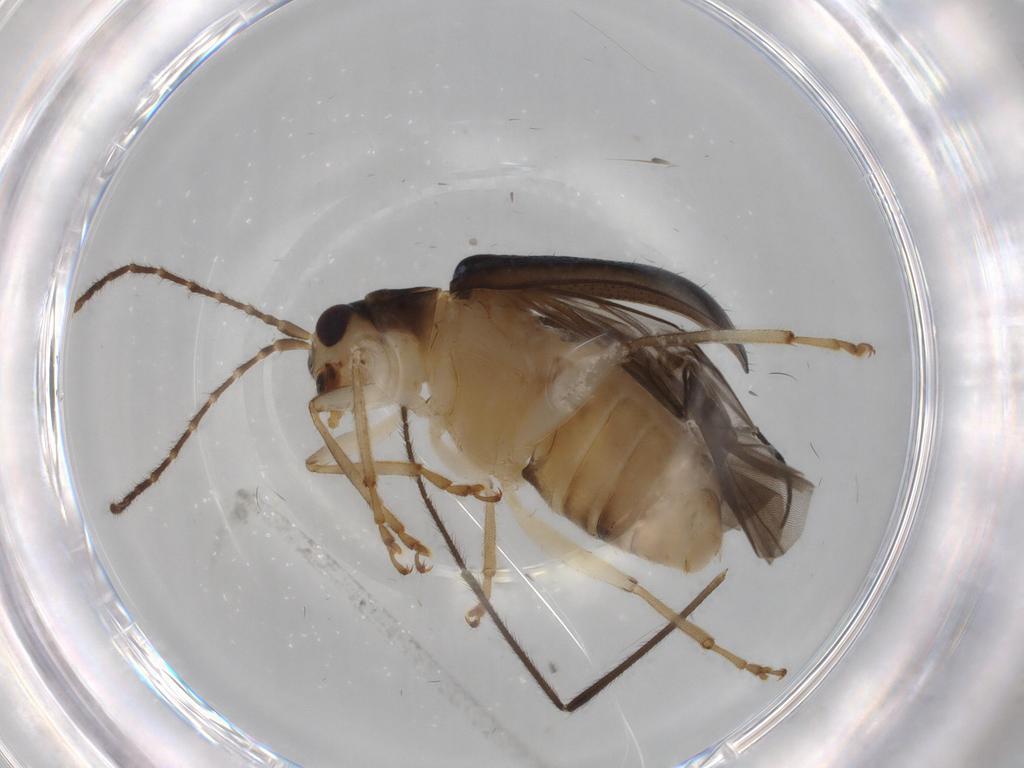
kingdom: Animalia
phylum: Arthropoda
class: Insecta
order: Coleoptera
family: Chrysomelidae
